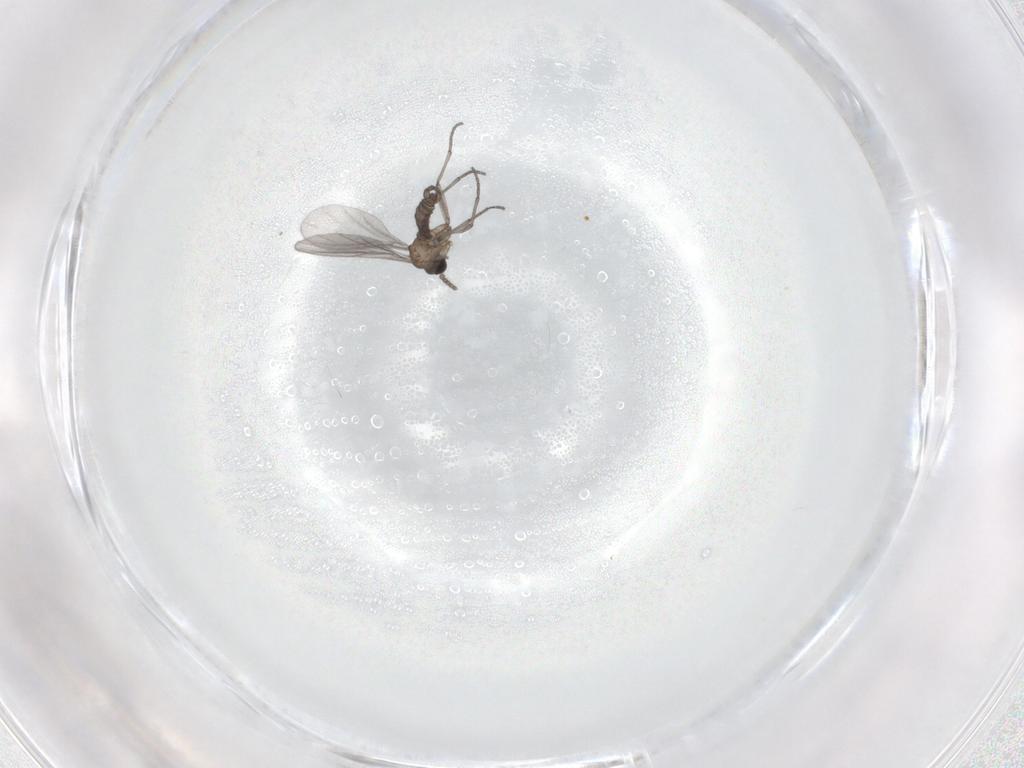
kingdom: Animalia
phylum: Arthropoda
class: Insecta
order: Diptera
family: Sciaridae
